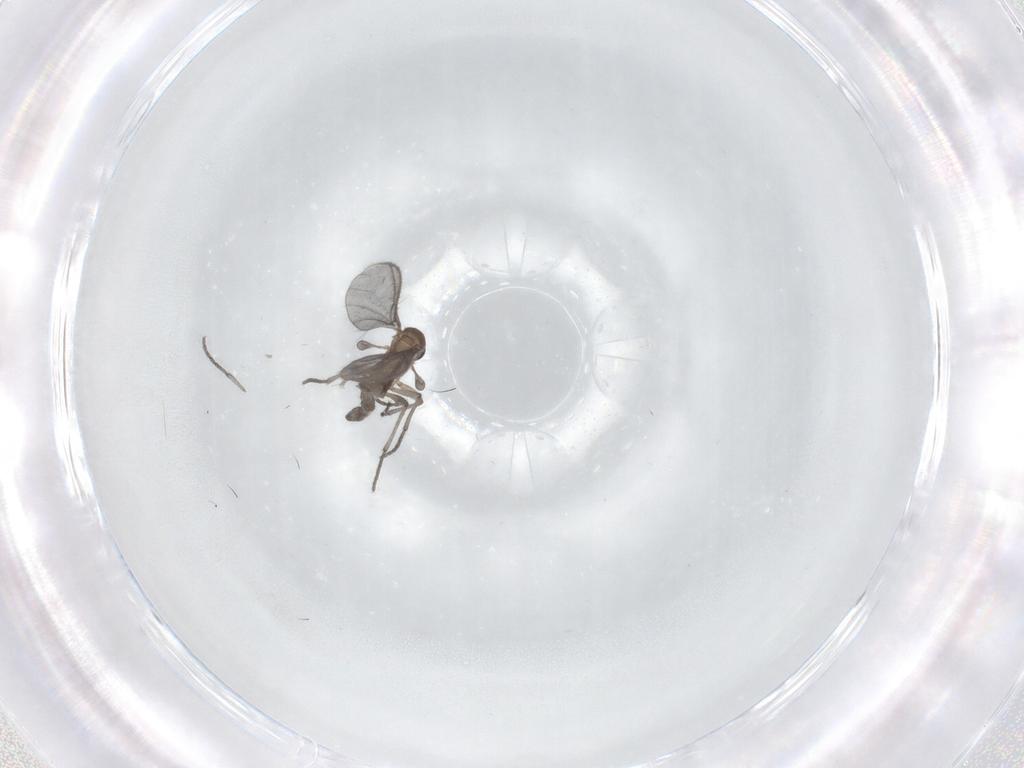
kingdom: Animalia
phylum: Arthropoda
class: Insecta
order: Diptera
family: Sciaridae
